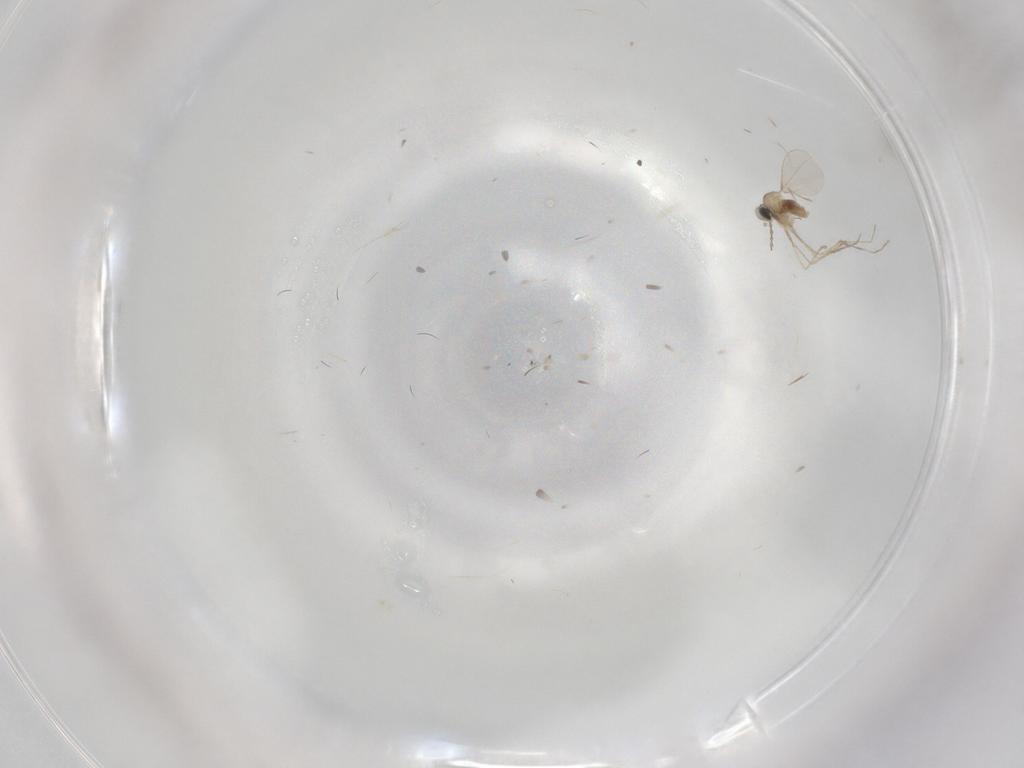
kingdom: Animalia
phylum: Arthropoda
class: Insecta
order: Diptera
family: Cecidomyiidae
